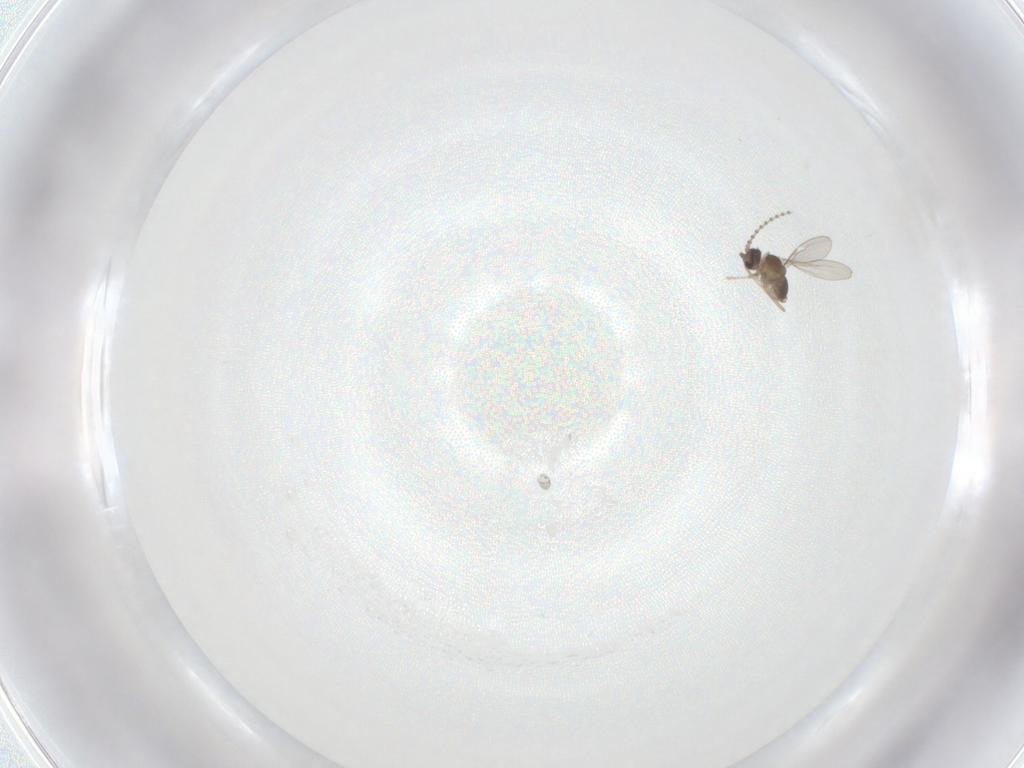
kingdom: Animalia
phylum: Arthropoda
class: Insecta
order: Diptera
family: Cecidomyiidae
